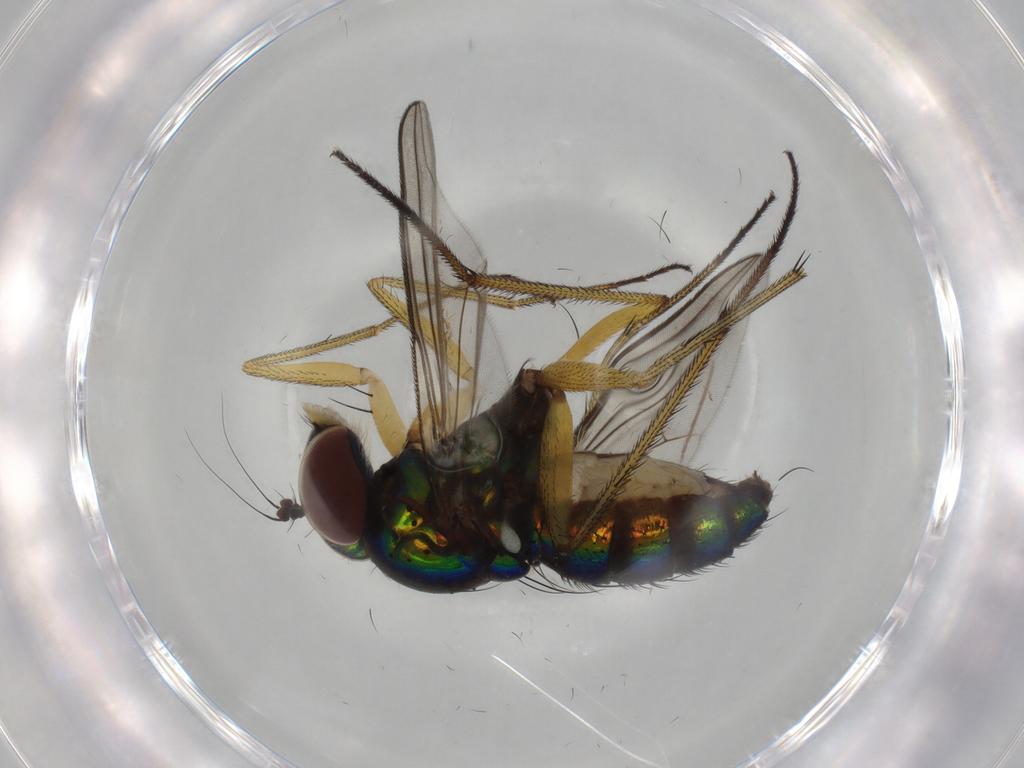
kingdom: Animalia
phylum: Arthropoda
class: Insecta
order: Diptera
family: Dolichopodidae
